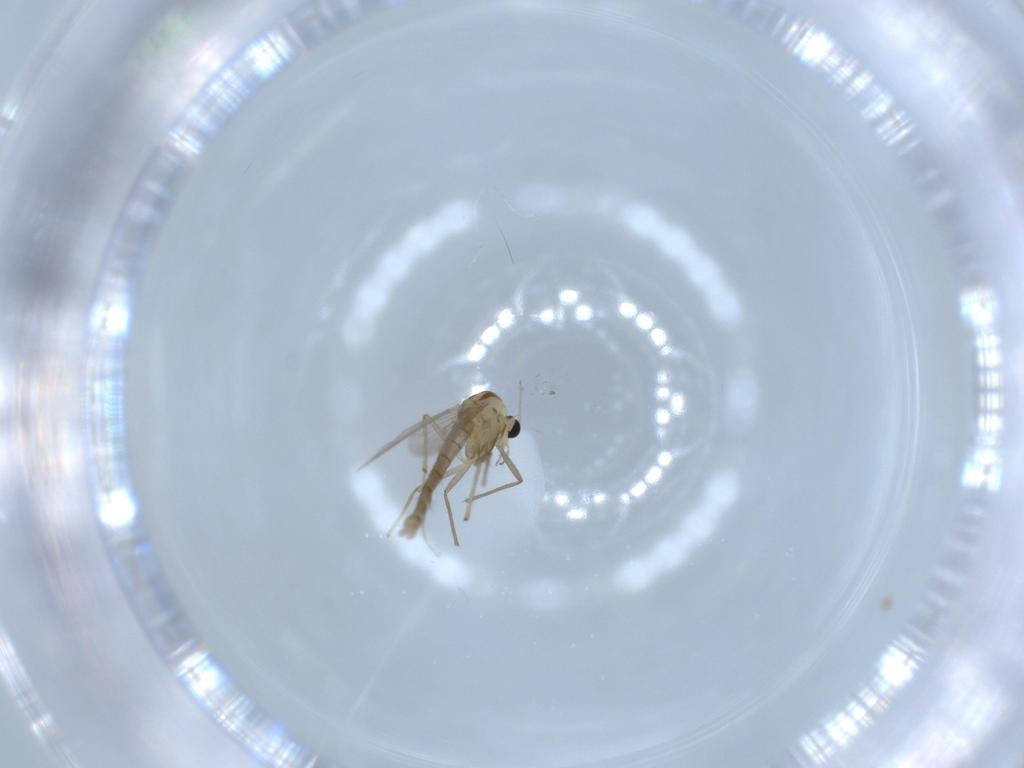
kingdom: Animalia
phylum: Arthropoda
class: Insecta
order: Diptera
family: Chironomidae
